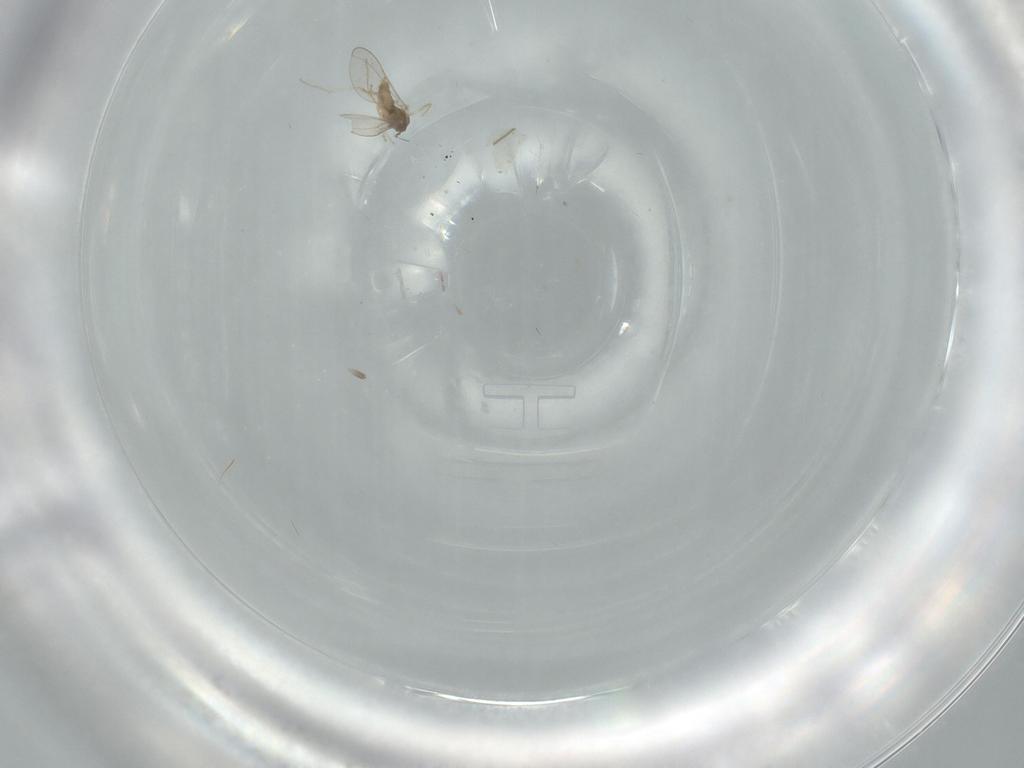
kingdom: Animalia
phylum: Arthropoda
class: Insecta
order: Diptera
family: Cecidomyiidae
